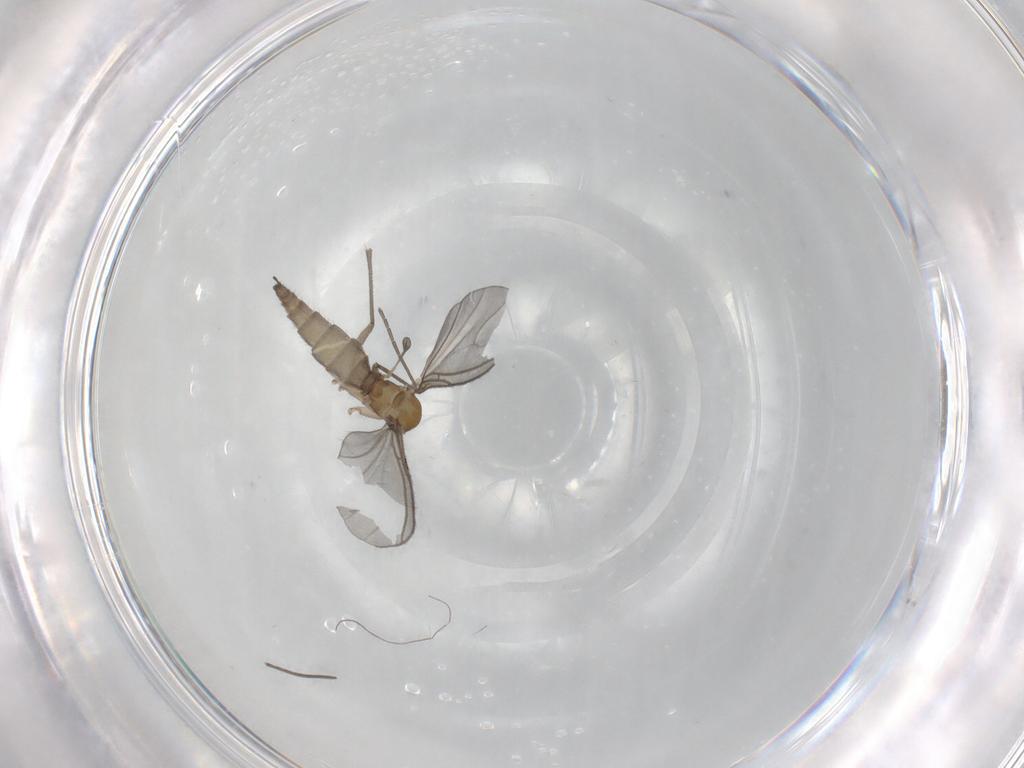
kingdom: Animalia
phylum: Arthropoda
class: Insecta
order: Diptera
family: Sciaridae
